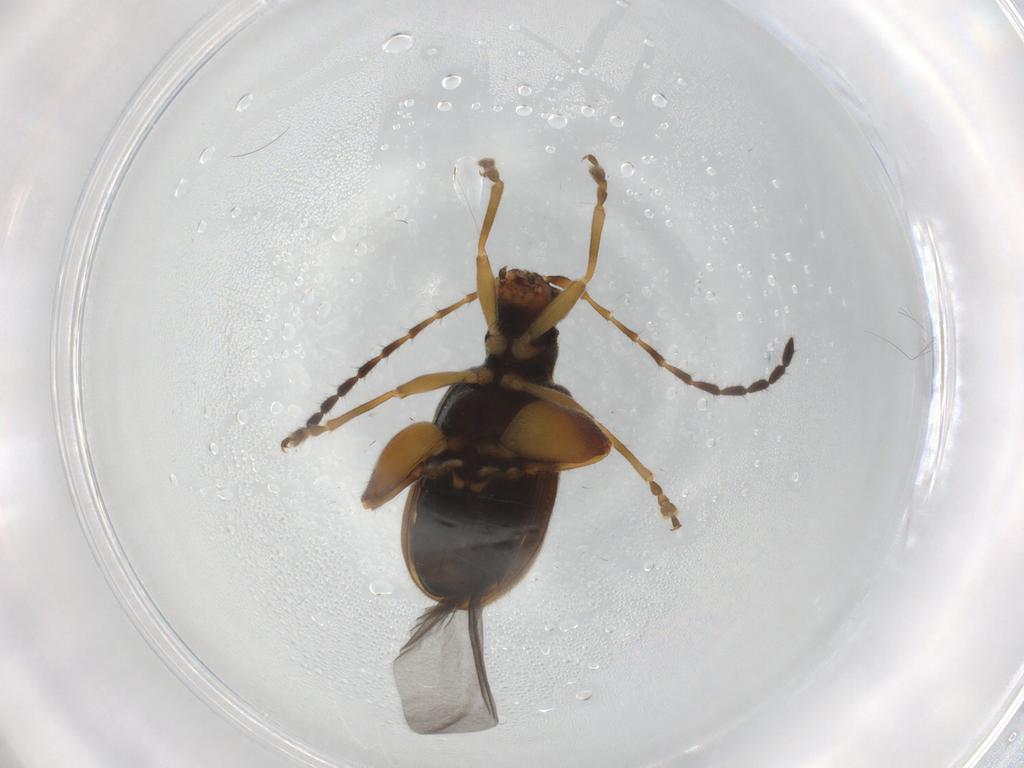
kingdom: Animalia
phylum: Arthropoda
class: Insecta
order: Coleoptera
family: Chrysomelidae
